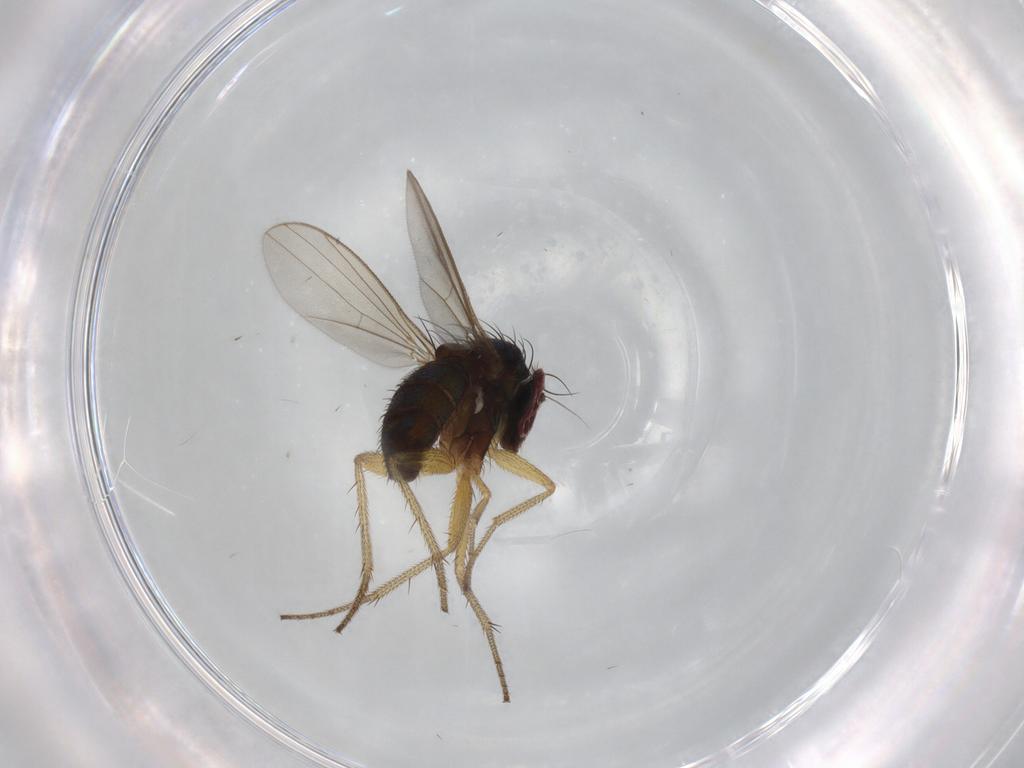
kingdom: Animalia
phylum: Arthropoda
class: Insecta
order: Diptera
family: Dolichopodidae
